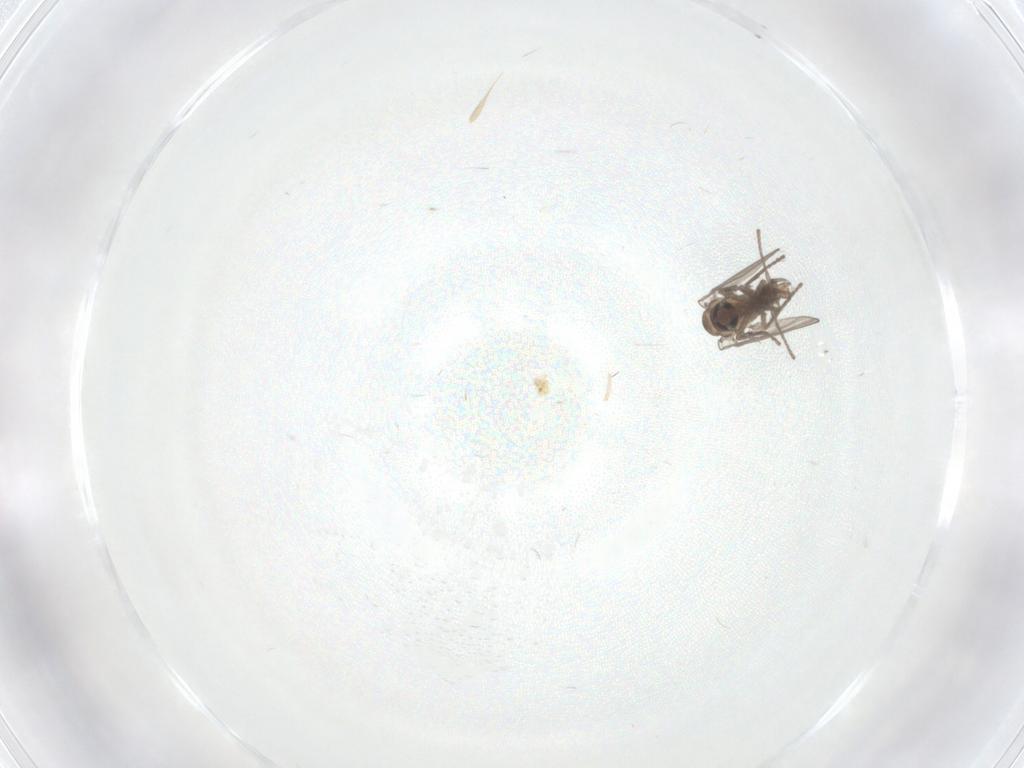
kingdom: Animalia
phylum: Arthropoda
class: Insecta
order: Diptera
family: Psychodidae
